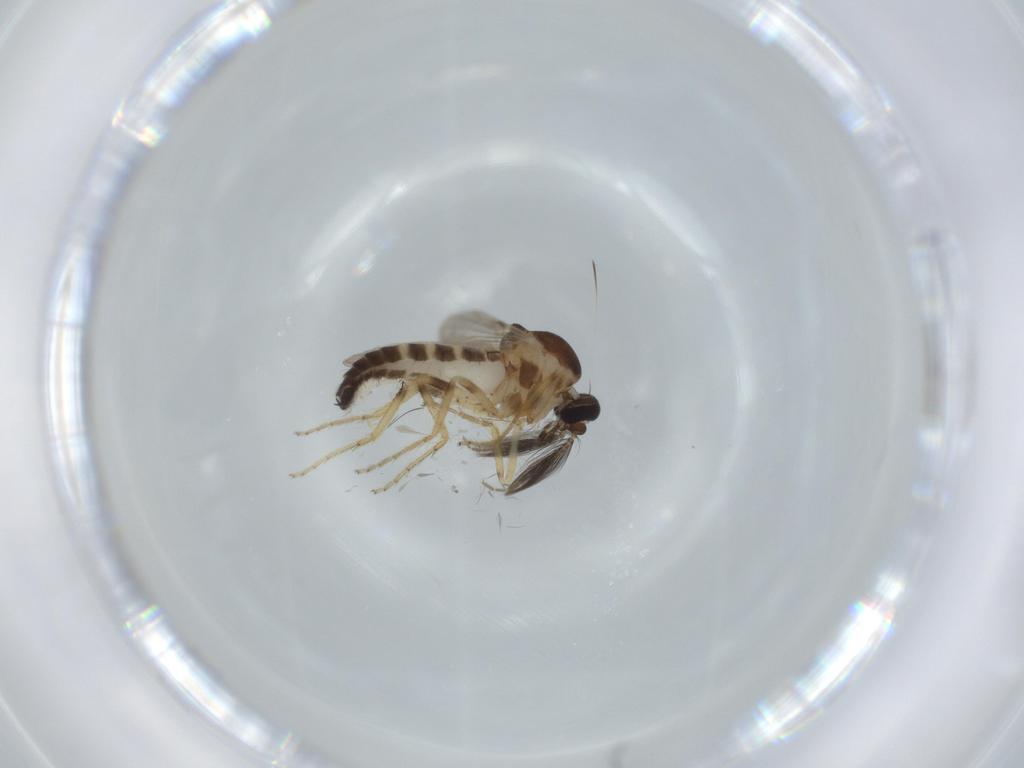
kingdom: Animalia
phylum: Arthropoda
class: Insecta
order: Diptera
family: Ceratopogonidae
